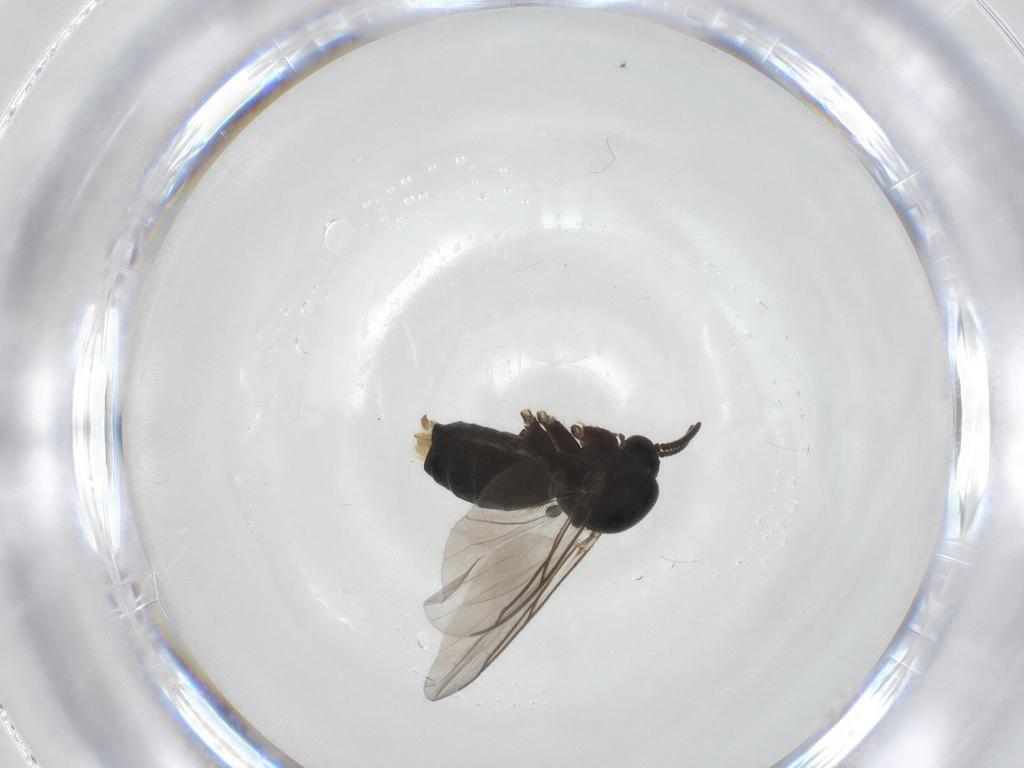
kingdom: Animalia
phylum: Arthropoda
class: Insecta
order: Diptera
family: Mycetophilidae
